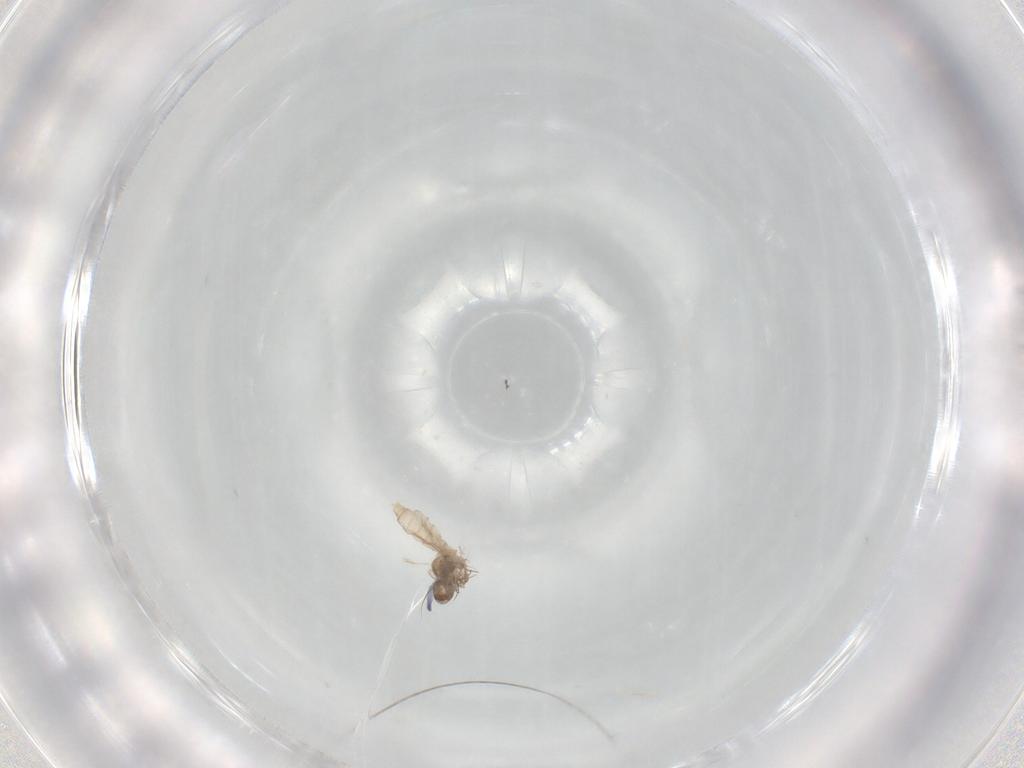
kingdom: Animalia
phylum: Arthropoda
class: Insecta
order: Diptera
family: Cecidomyiidae
